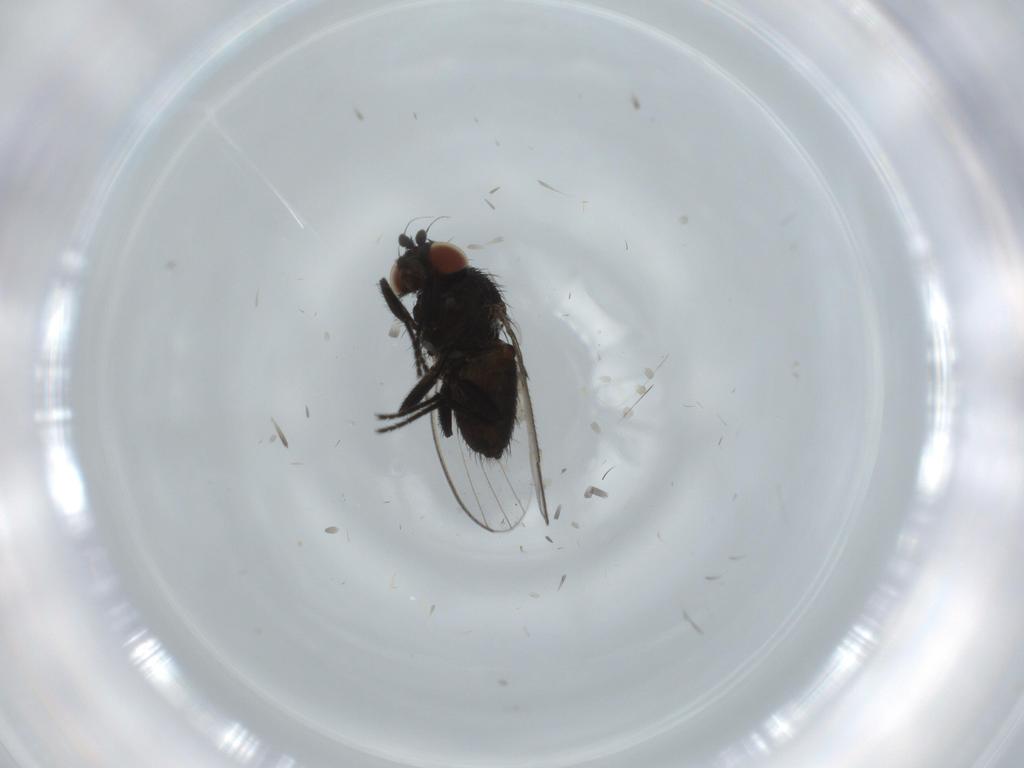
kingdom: Animalia
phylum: Arthropoda
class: Insecta
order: Diptera
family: Milichiidae
